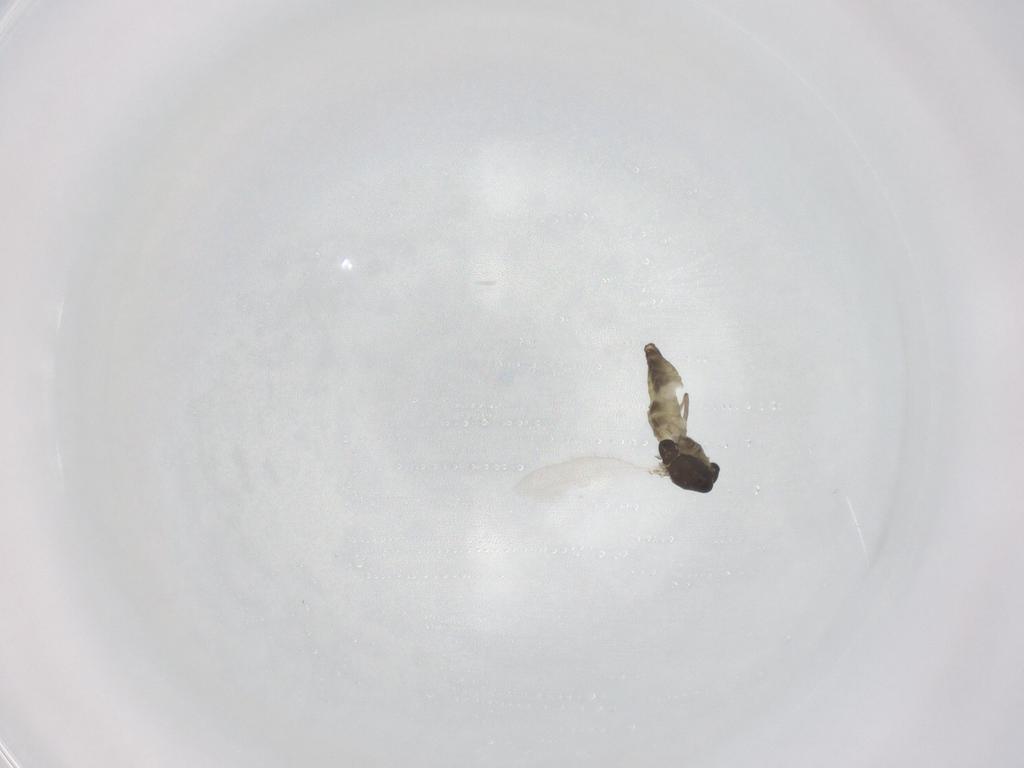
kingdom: Animalia
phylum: Arthropoda
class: Insecta
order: Diptera
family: Chironomidae
